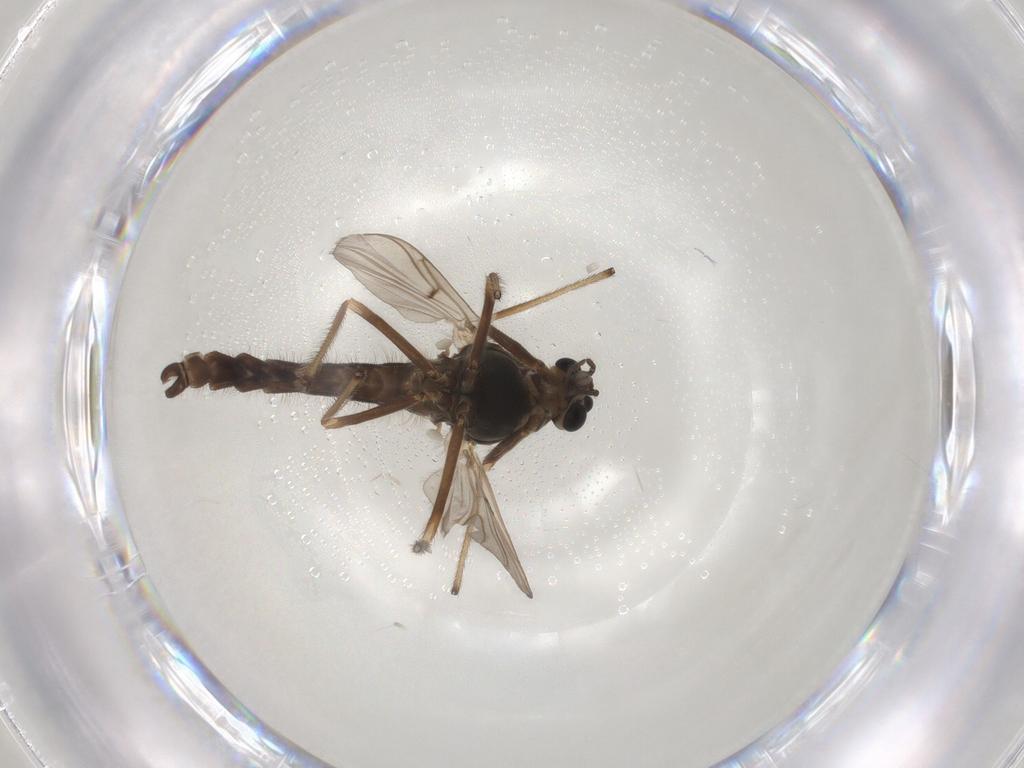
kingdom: Animalia
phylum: Arthropoda
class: Insecta
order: Diptera
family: Chironomidae
